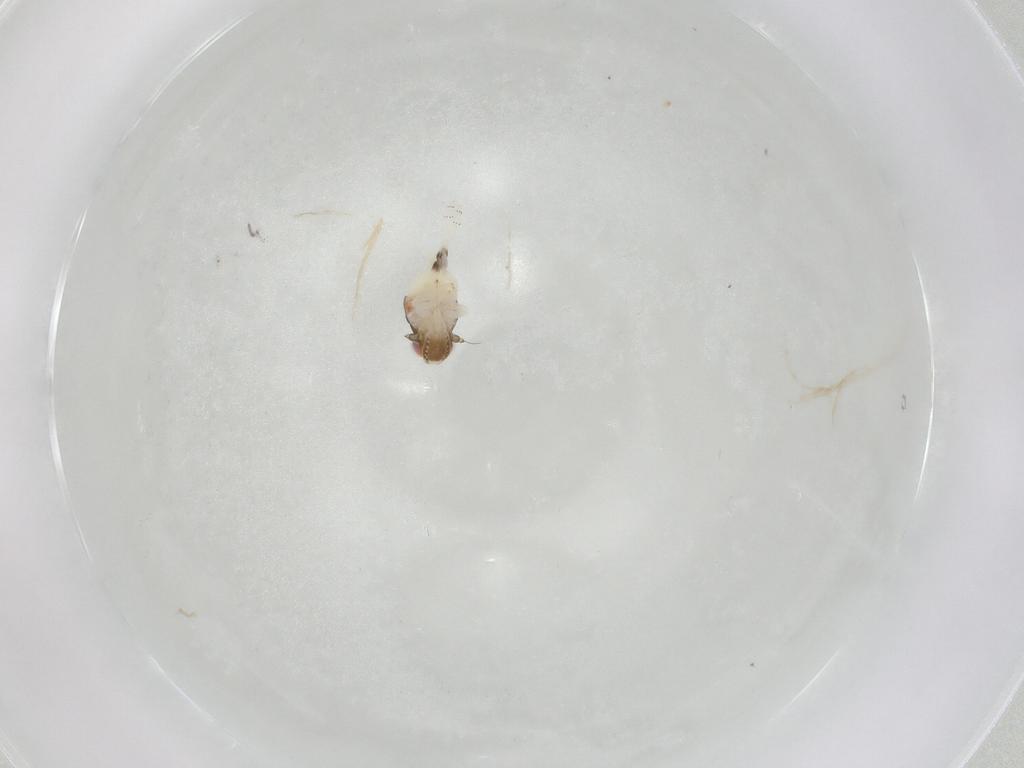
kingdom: Animalia
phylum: Arthropoda
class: Insecta
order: Hemiptera
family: Nogodinidae
